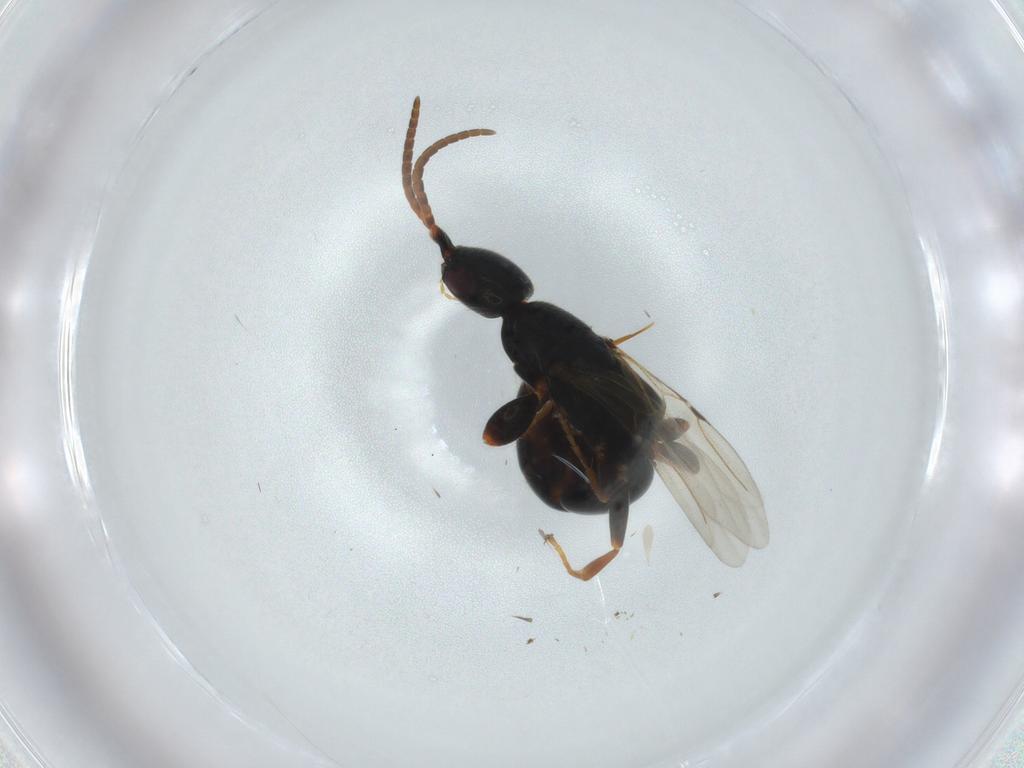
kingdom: Animalia
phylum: Arthropoda
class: Insecta
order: Hymenoptera
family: Bethylidae
